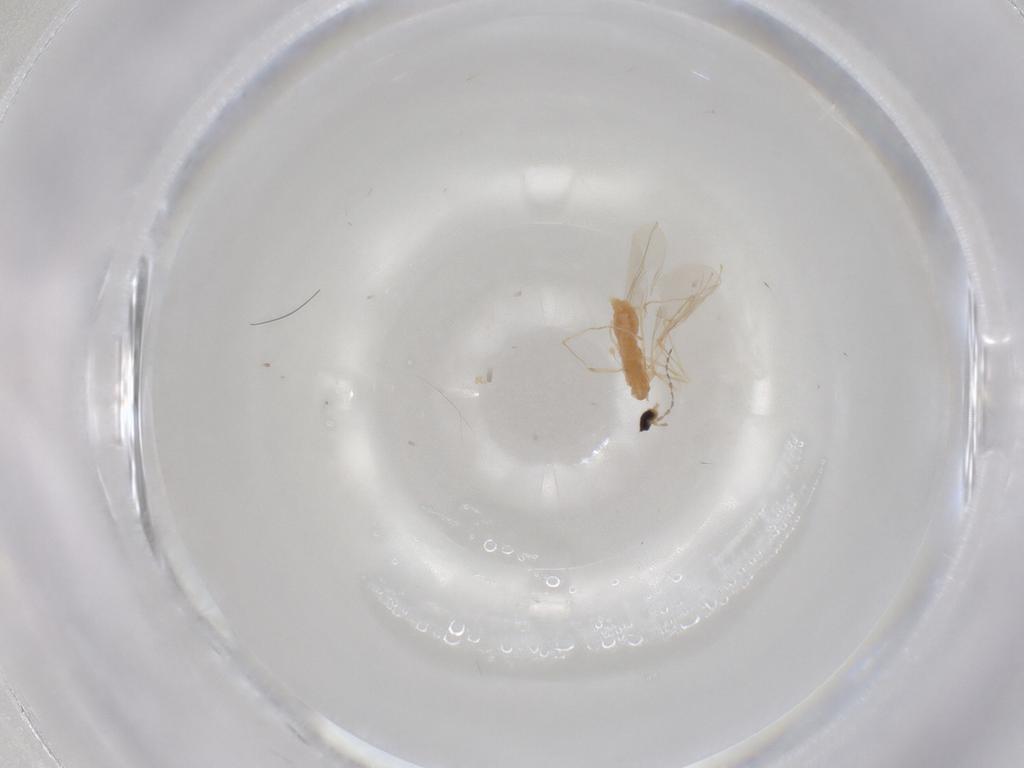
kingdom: Animalia
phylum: Arthropoda
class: Insecta
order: Diptera
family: Cecidomyiidae
